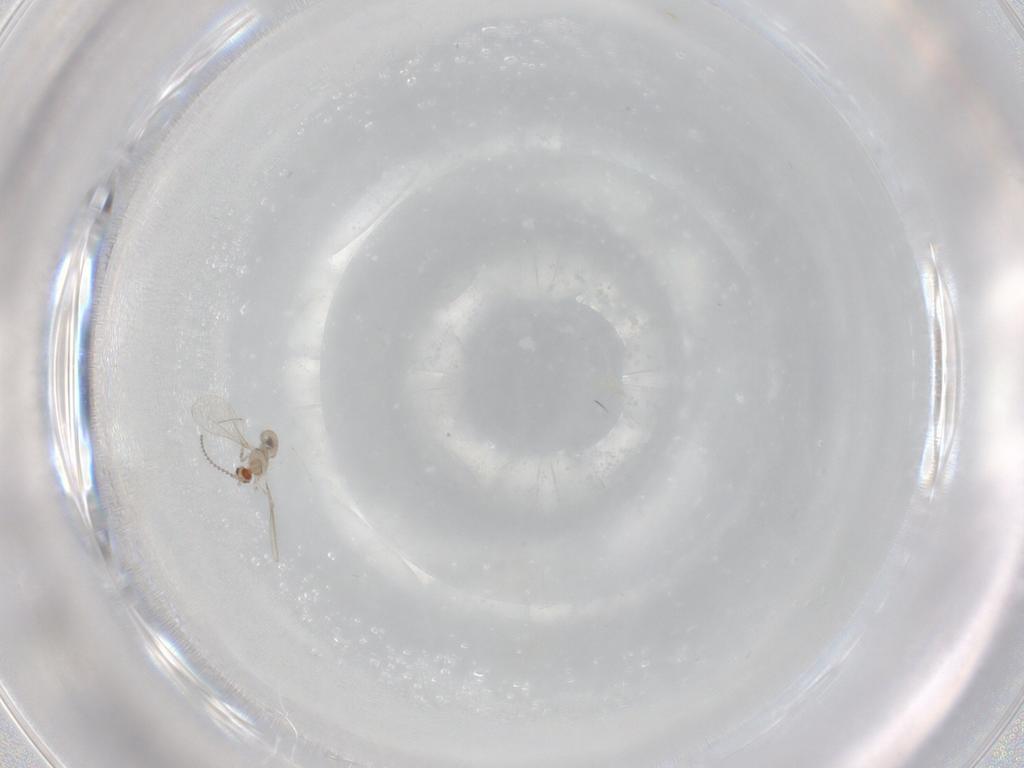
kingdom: Animalia
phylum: Arthropoda
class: Insecta
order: Diptera
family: Cecidomyiidae
